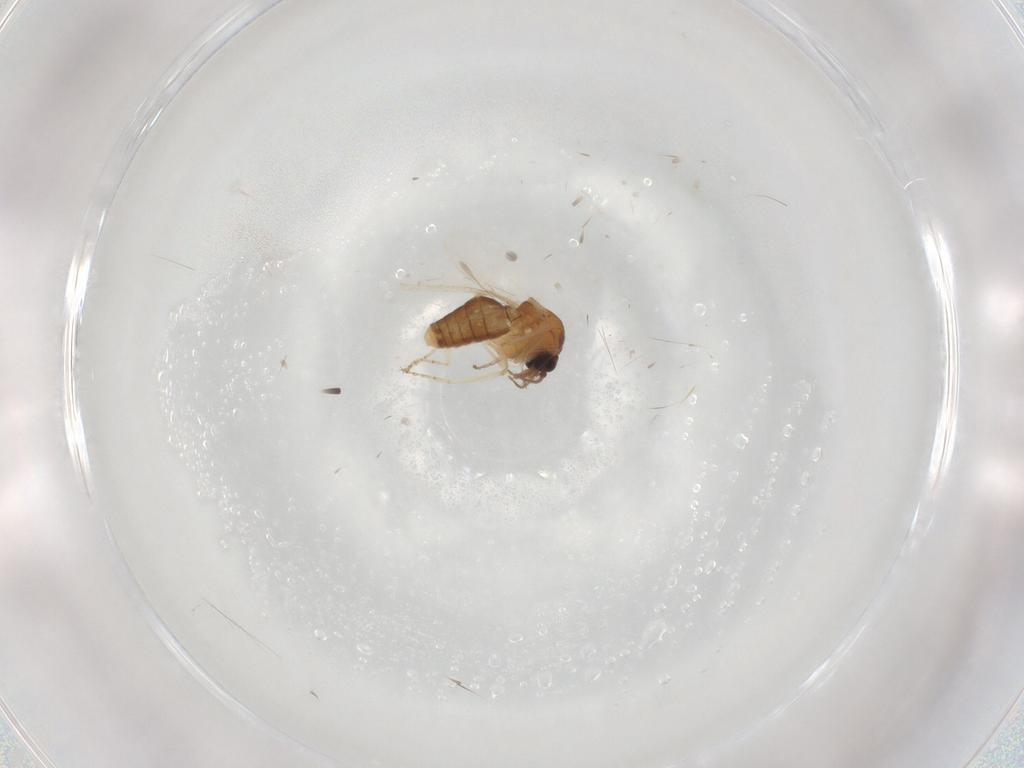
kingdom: Animalia
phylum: Arthropoda
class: Insecta
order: Diptera
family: Ceratopogonidae
